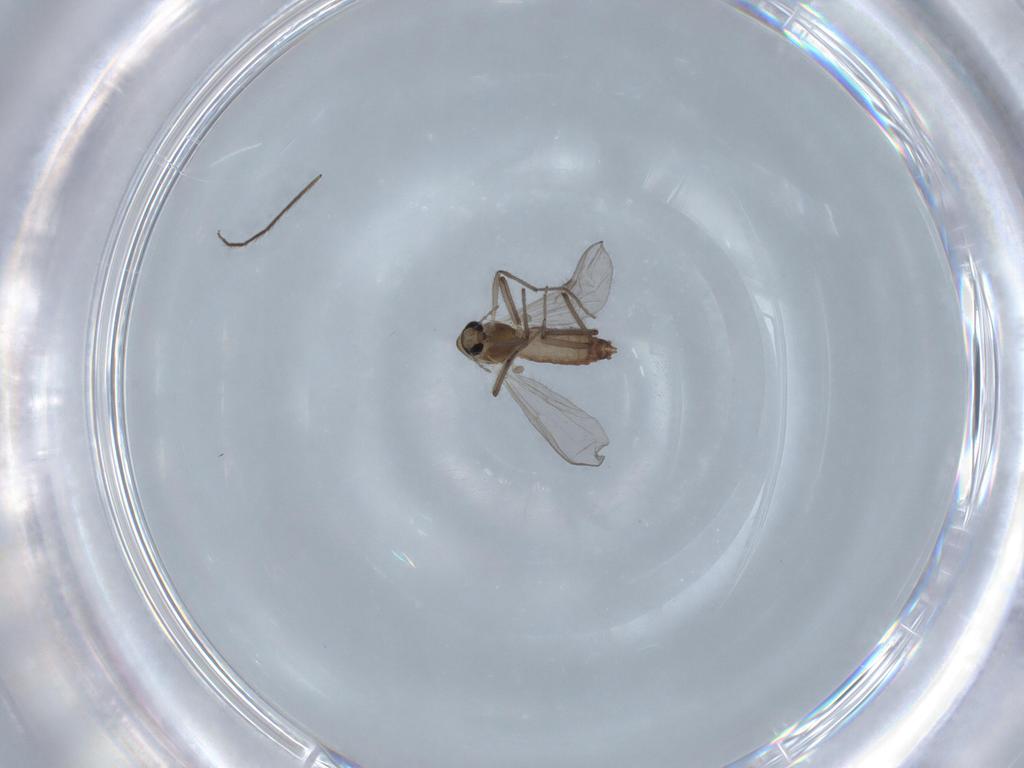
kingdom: Animalia
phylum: Arthropoda
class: Insecta
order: Diptera
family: Chironomidae
